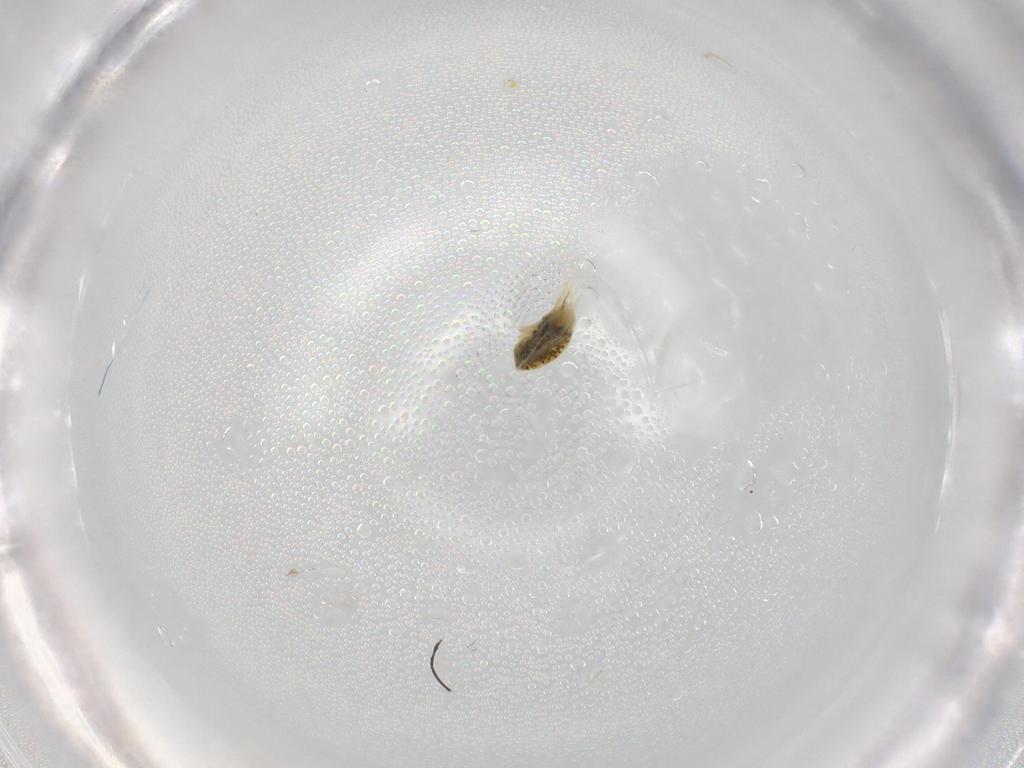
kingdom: Animalia
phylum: Arthropoda
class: Arachnida
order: Trombidiformes
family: Tetranychidae
